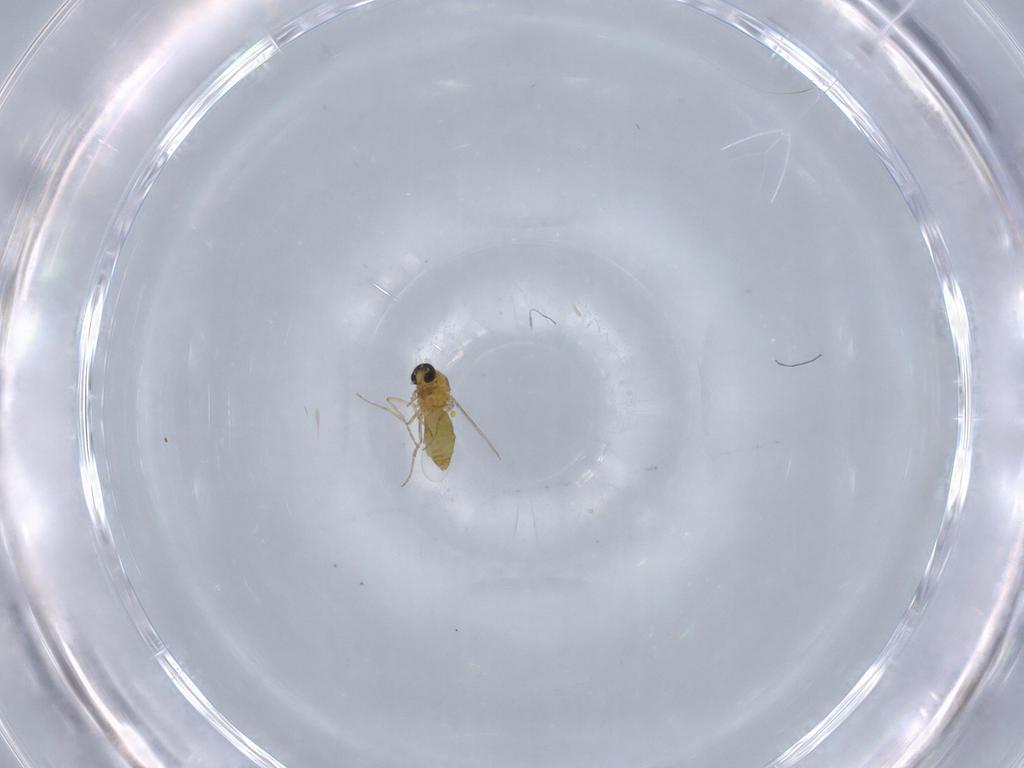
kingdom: Animalia
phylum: Arthropoda
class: Insecta
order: Diptera
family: Ceratopogonidae
